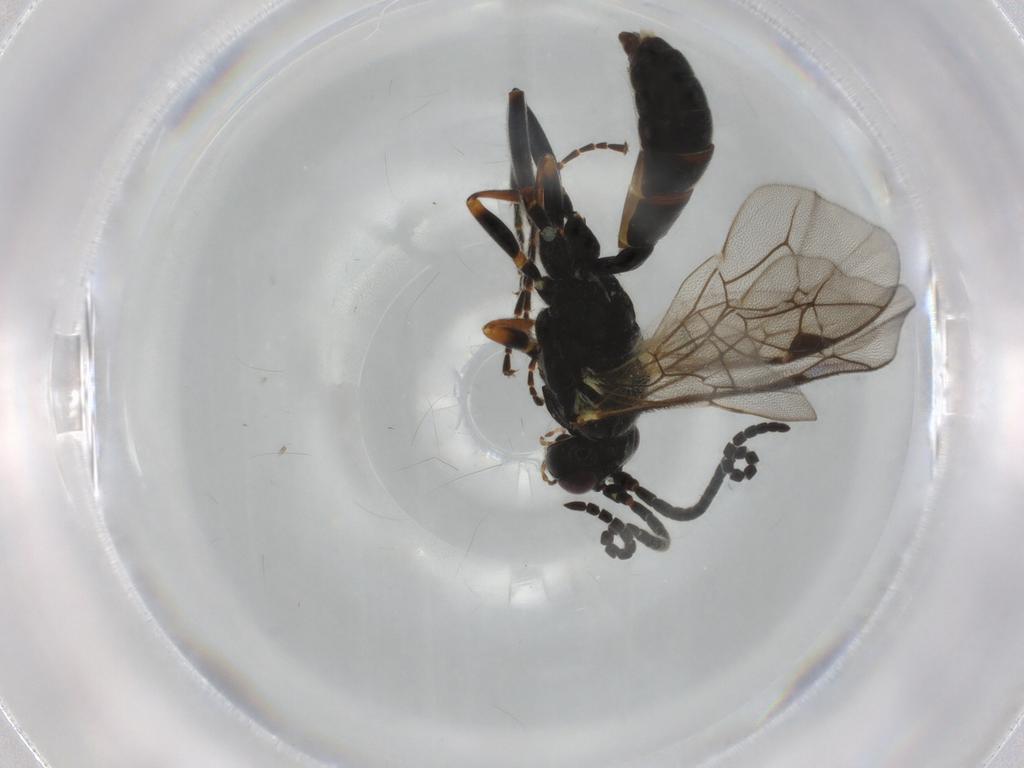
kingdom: Animalia
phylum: Arthropoda
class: Insecta
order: Hymenoptera
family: Ichneumonidae
